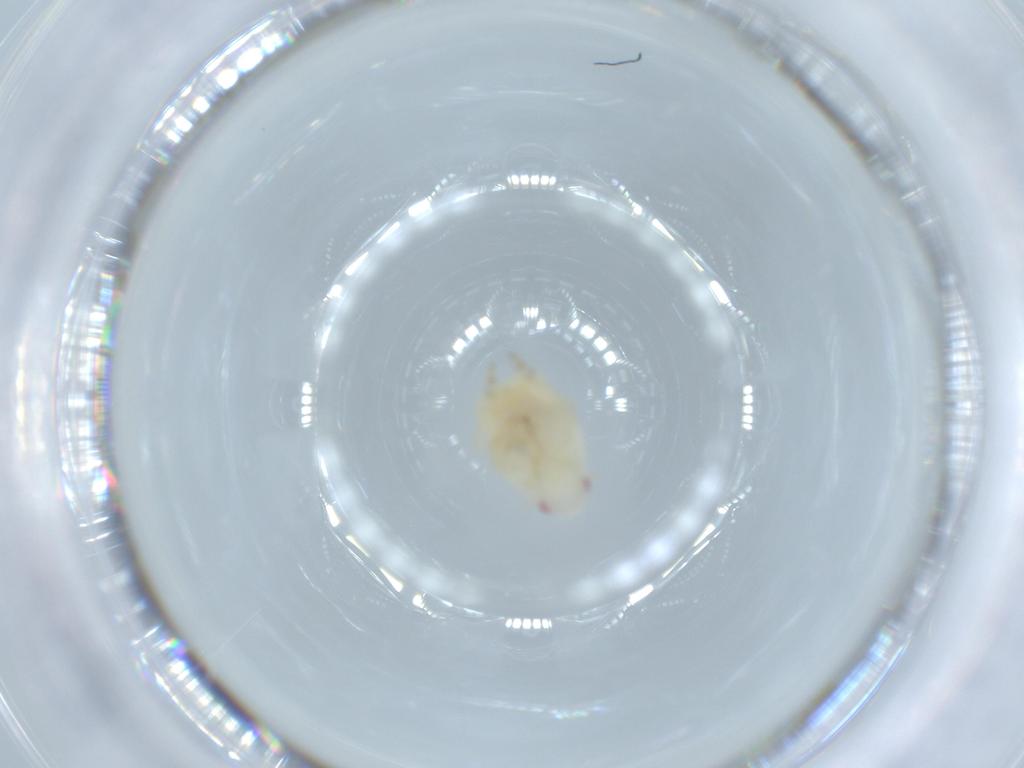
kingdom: Animalia
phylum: Arthropoda
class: Insecta
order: Hemiptera
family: Flatidae
